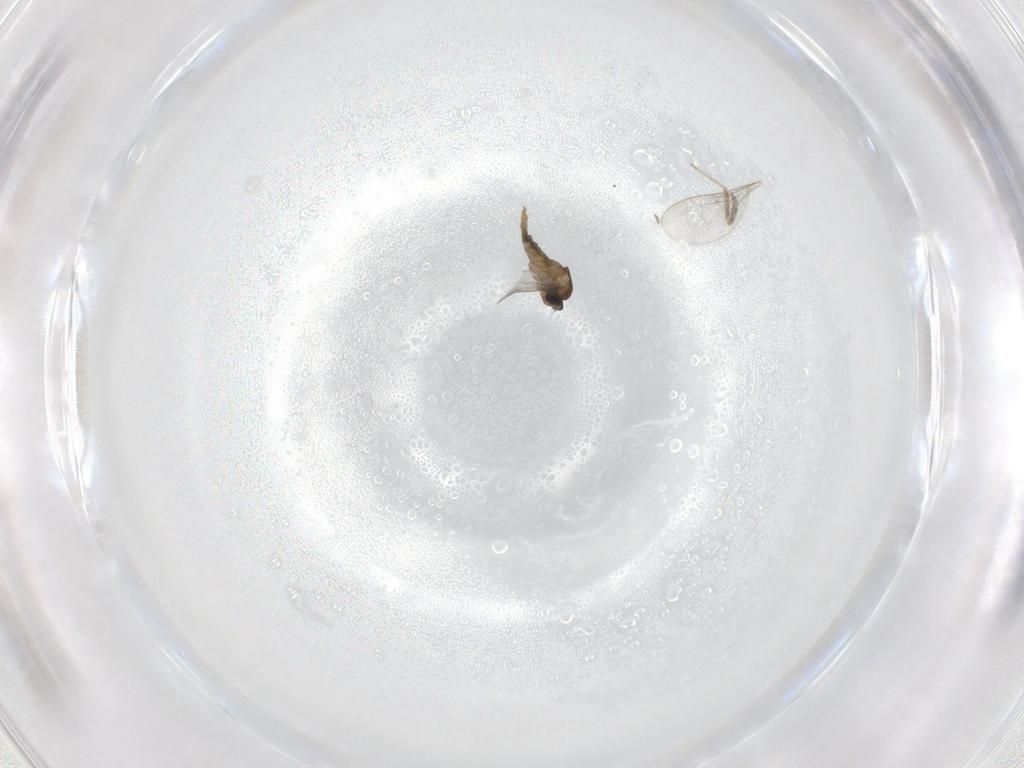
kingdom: Animalia
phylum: Arthropoda
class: Insecta
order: Diptera
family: Cecidomyiidae
